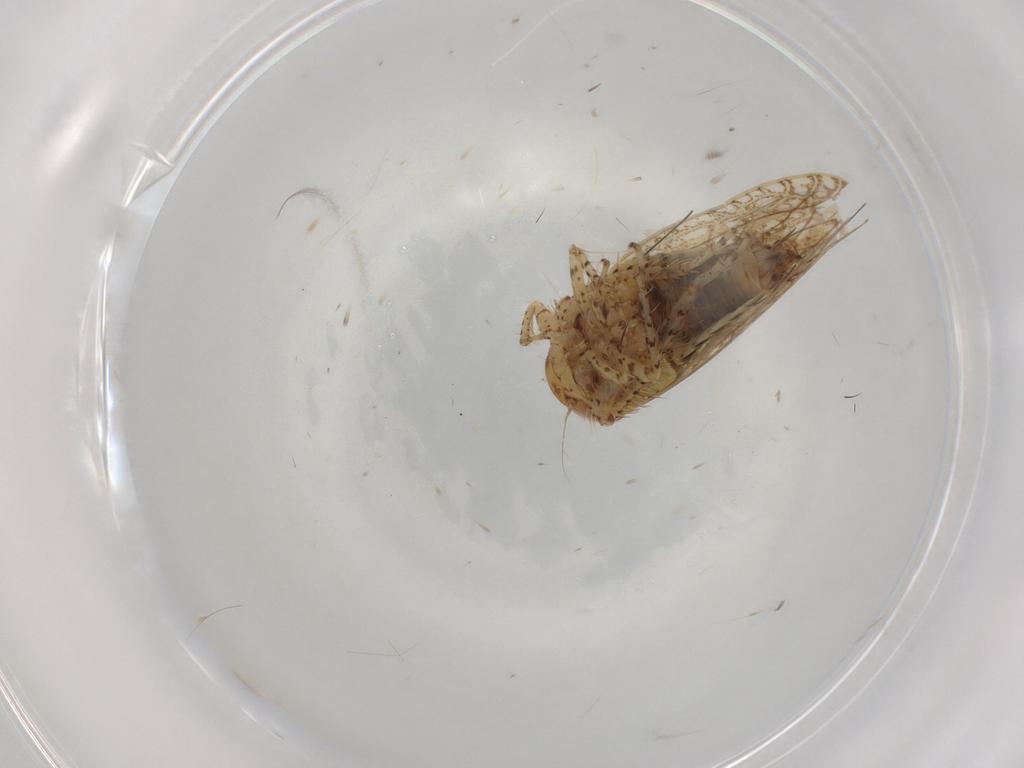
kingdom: Animalia
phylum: Arthropoda
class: Insecta
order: Hemiptera
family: Cicadellidae
